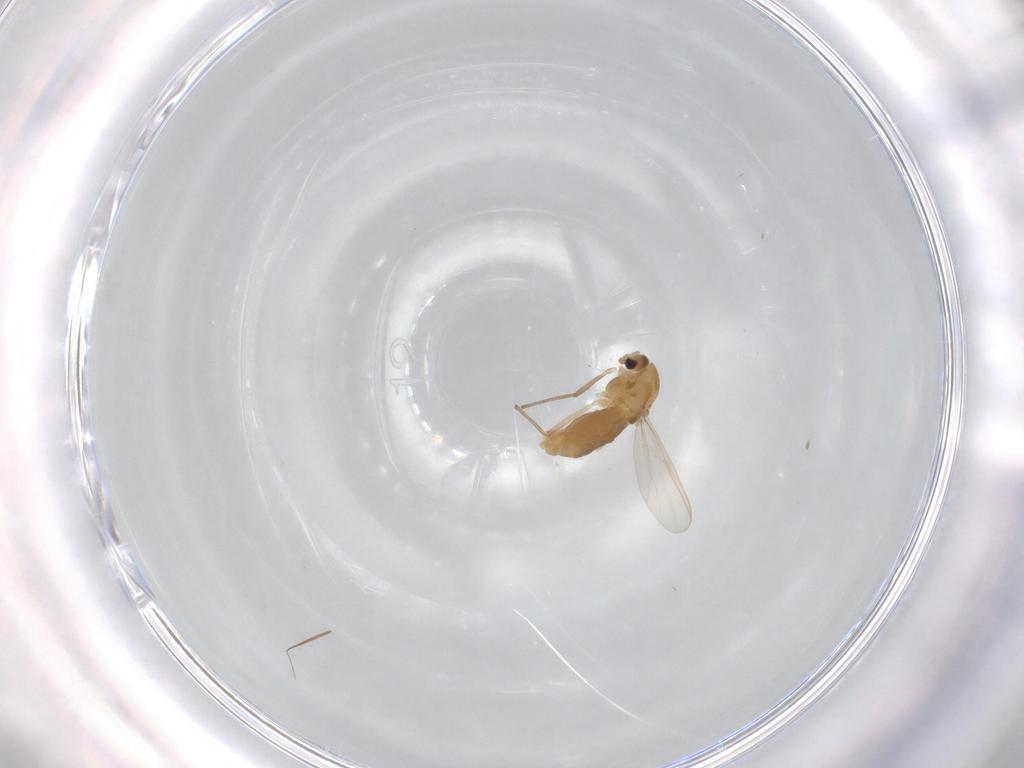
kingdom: Animalia
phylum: Arthropoda
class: Insecta
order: Diptera
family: Chironomidae
